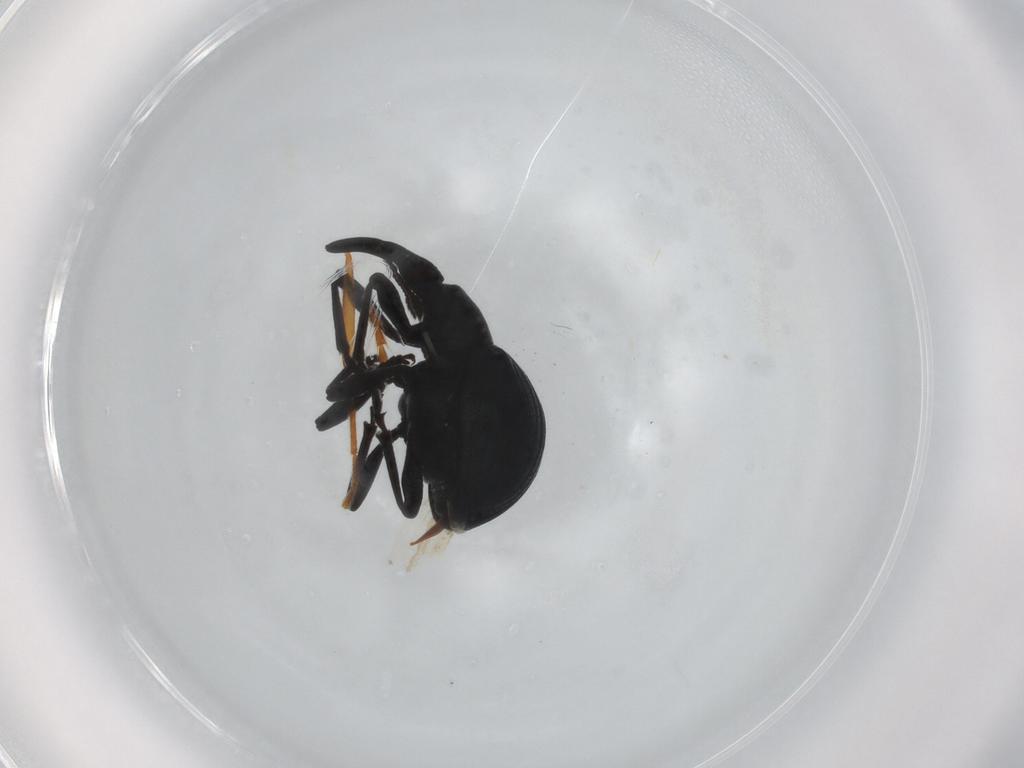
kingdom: Animalia
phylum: Arthropoda
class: Insecta
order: Coleoptera
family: Apionidae
